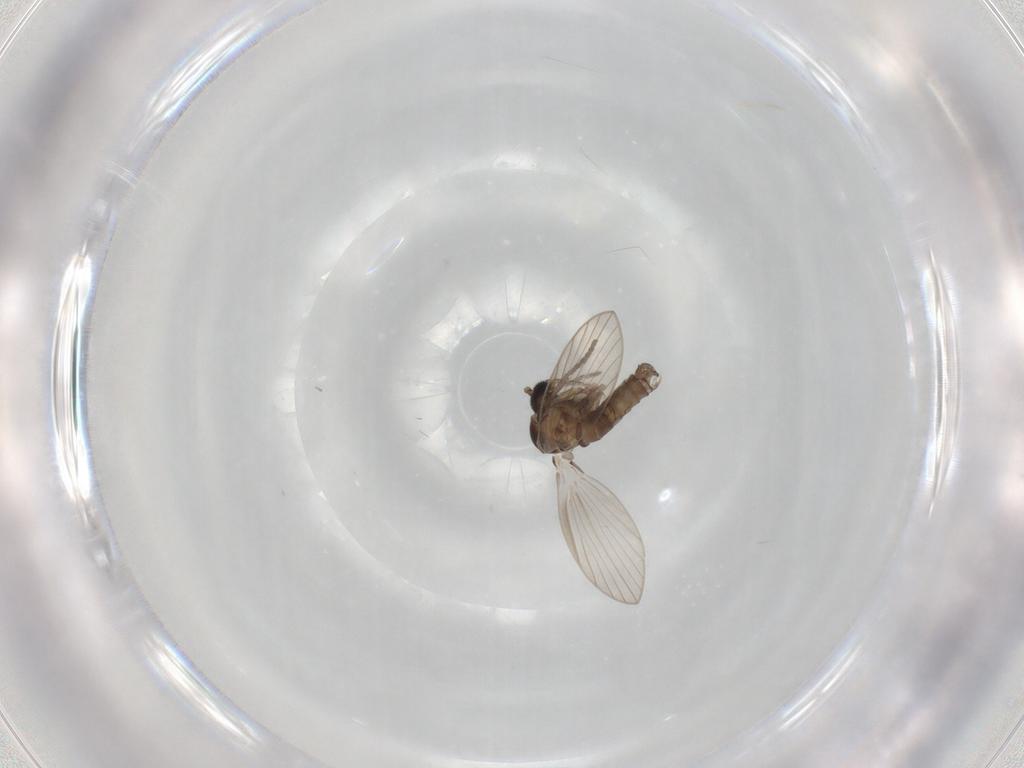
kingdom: Animalia
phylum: Arthropoda
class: Insecta
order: Diptera
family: Psychodidae
